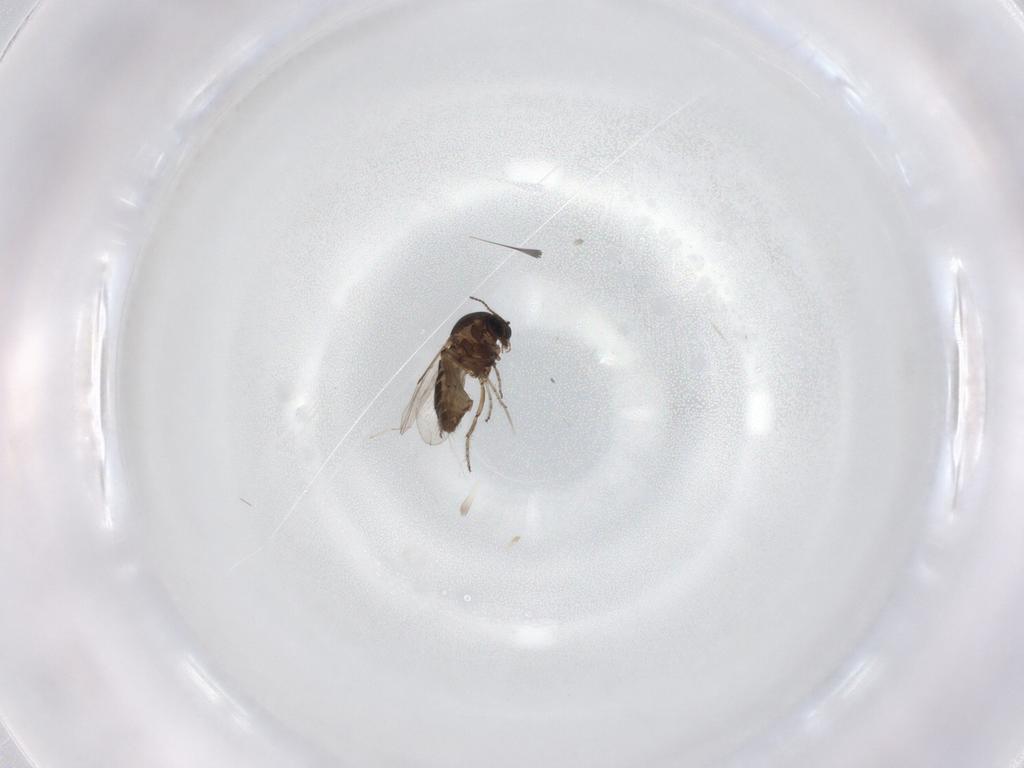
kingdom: Animalia
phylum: Arthropoda
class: Insecta
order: Diptera
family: Ceratopogonidae
